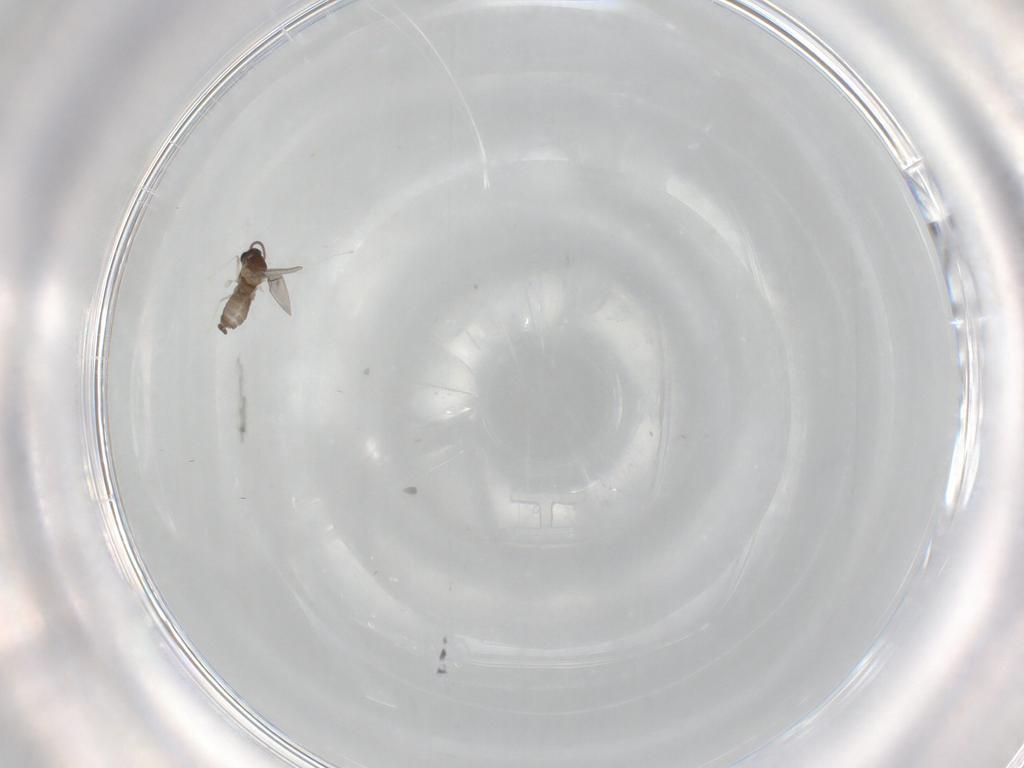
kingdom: Animalia
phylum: Arthropoda
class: Insecta
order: Diptera
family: Cecidomyiidae
